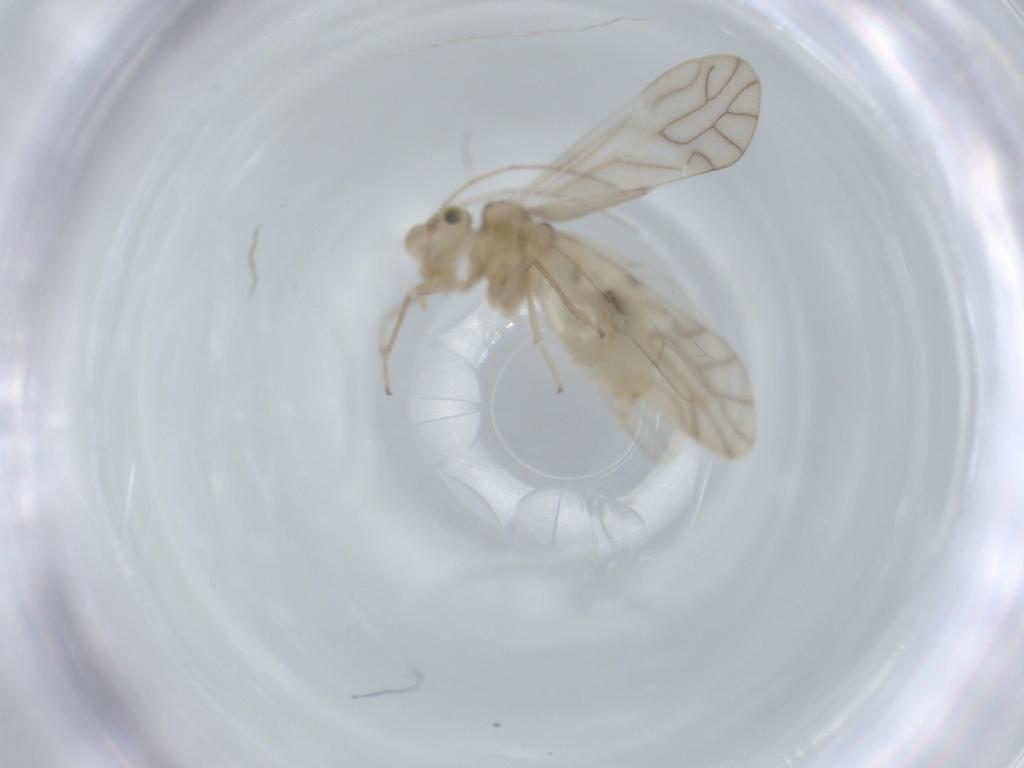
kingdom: Animalia
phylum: Arthropoda
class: Insecta
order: Psocodea
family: Caeciliusidae
